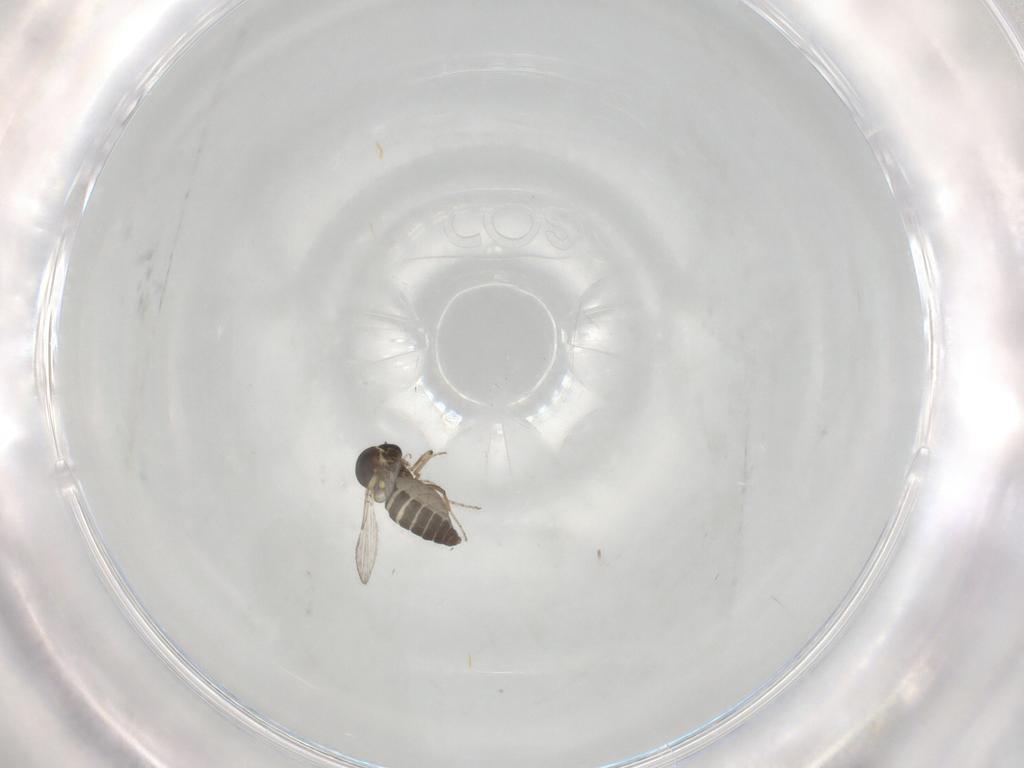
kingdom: Animalia
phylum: Arthropoda
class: Insecta
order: Diptera
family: Ceratopogonidae
